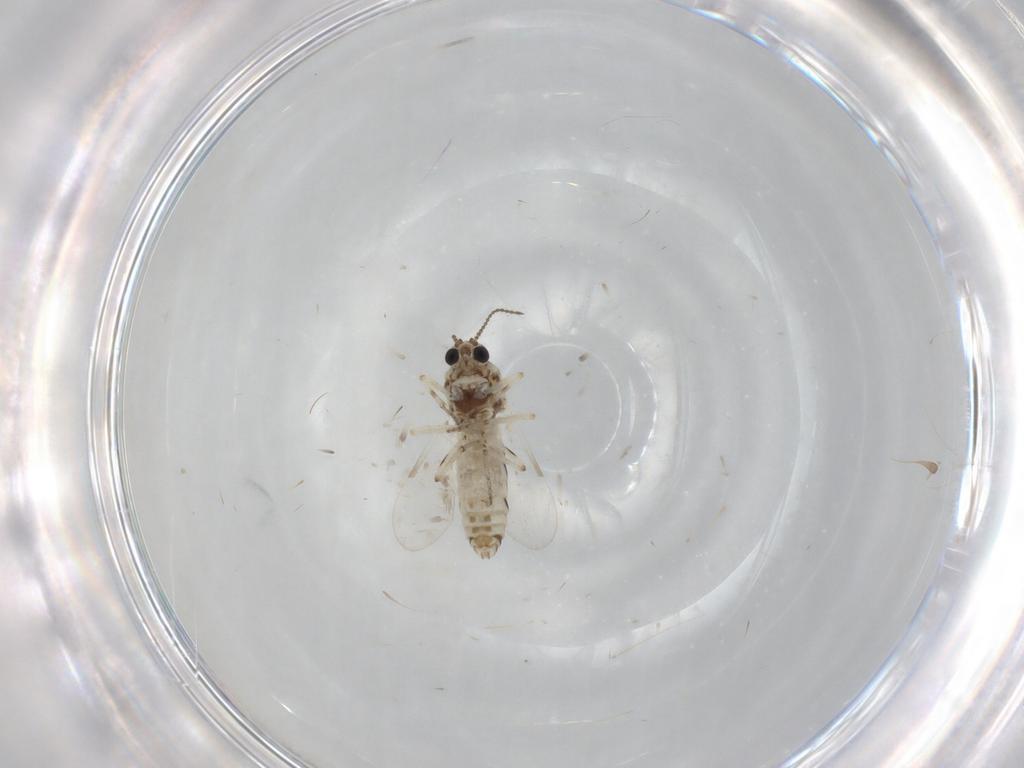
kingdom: Animalia
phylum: Arthropoda
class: Insecta
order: Diptera
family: Ceratopogonidae
